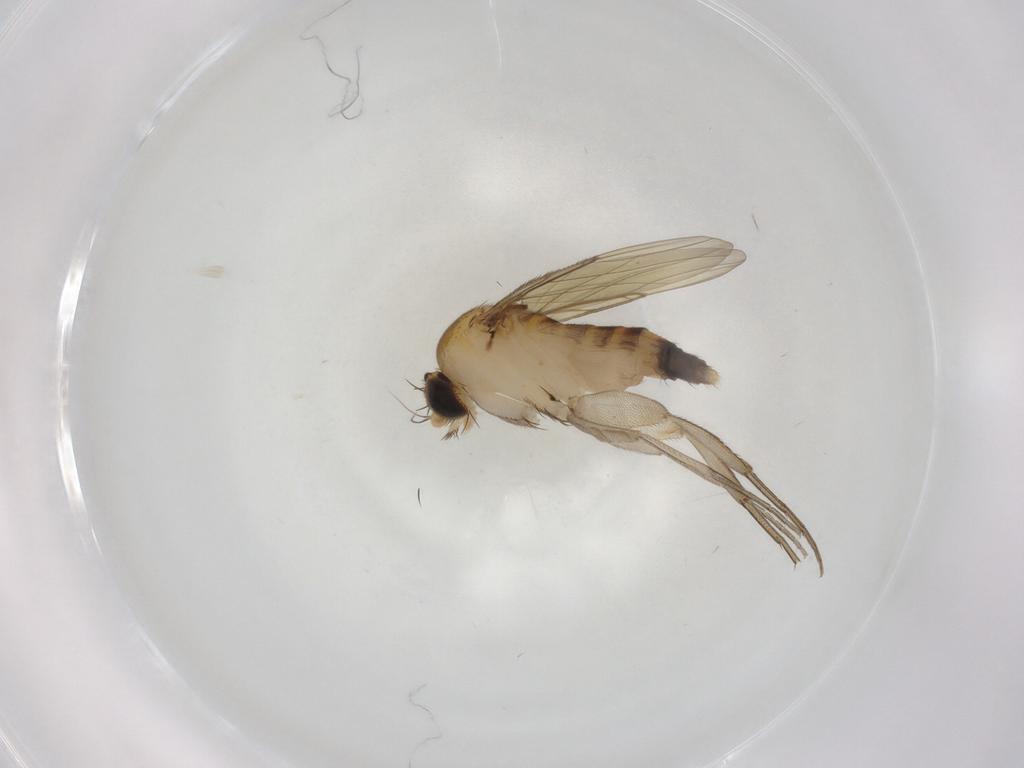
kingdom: Animalia
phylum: Arthropoda
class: Insecta
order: Diptera
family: Phoridae
